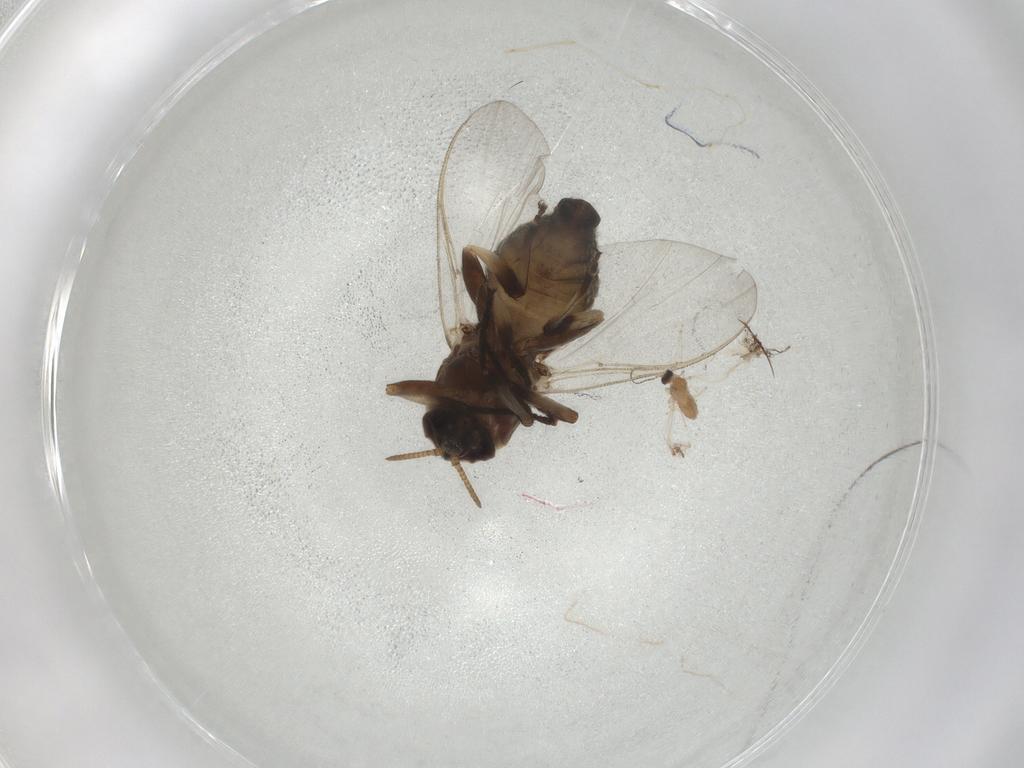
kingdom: Animalia
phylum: Arthropoda
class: Insecta
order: Diptera
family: Simuliidae
